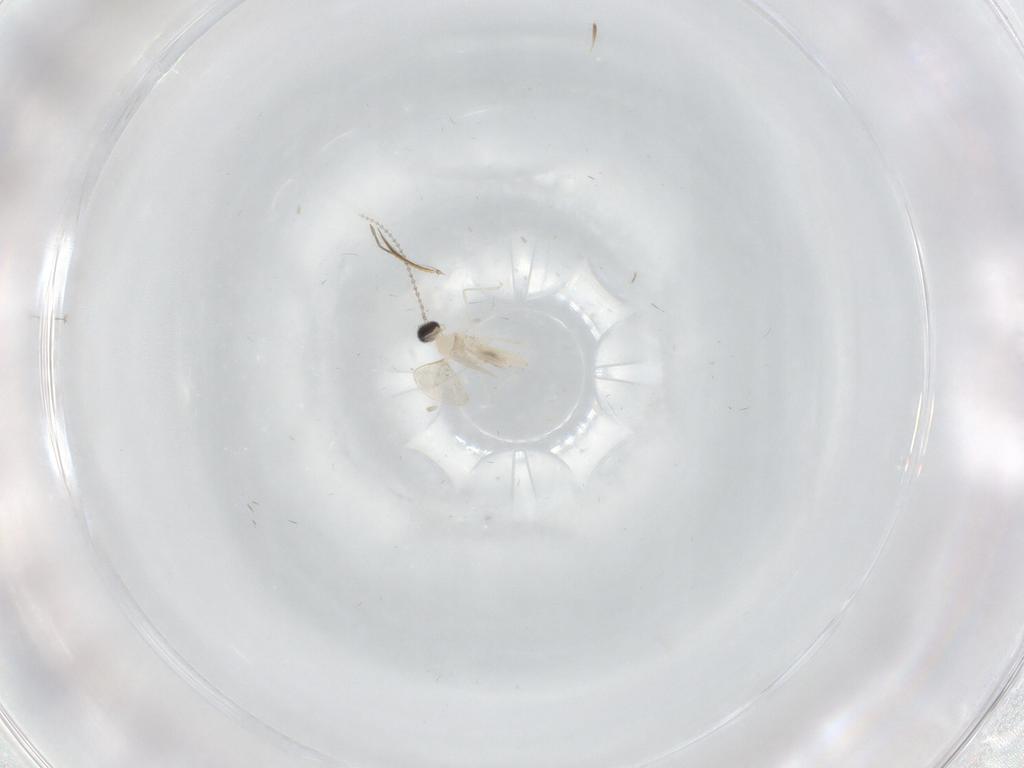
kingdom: Animalia
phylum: Arthropoda
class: Insecta
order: Diptera
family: Ceratopogonidae
